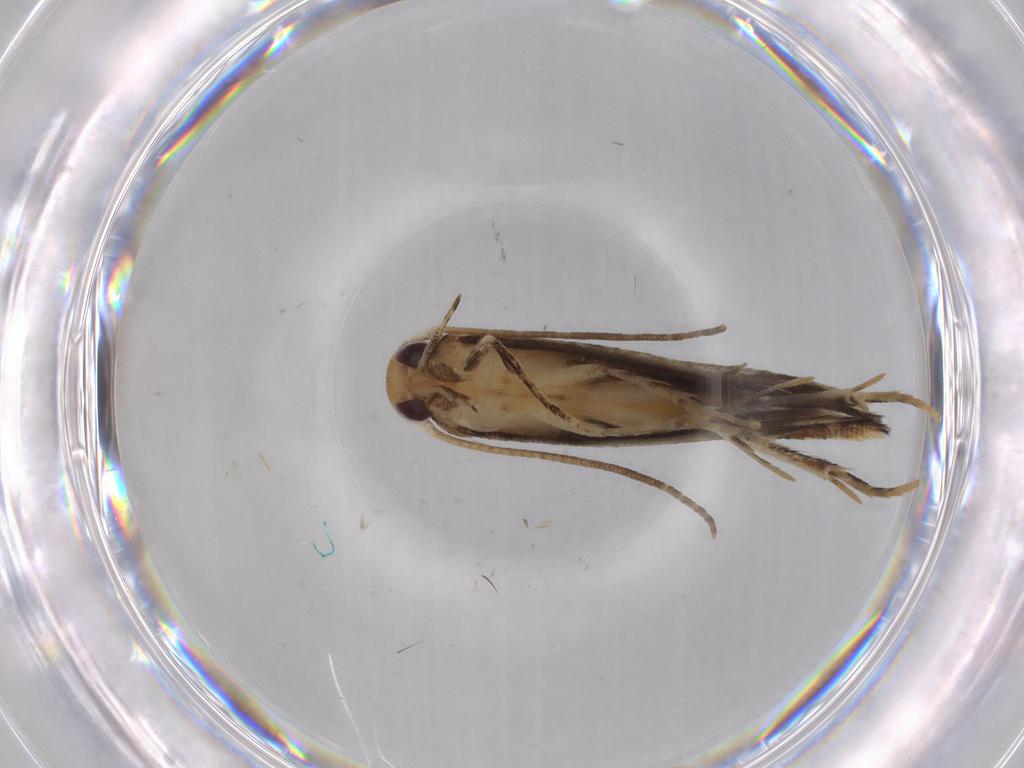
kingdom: Animalia
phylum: Arthropoda
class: Insecta
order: Lepidoptera
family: Momphidae
